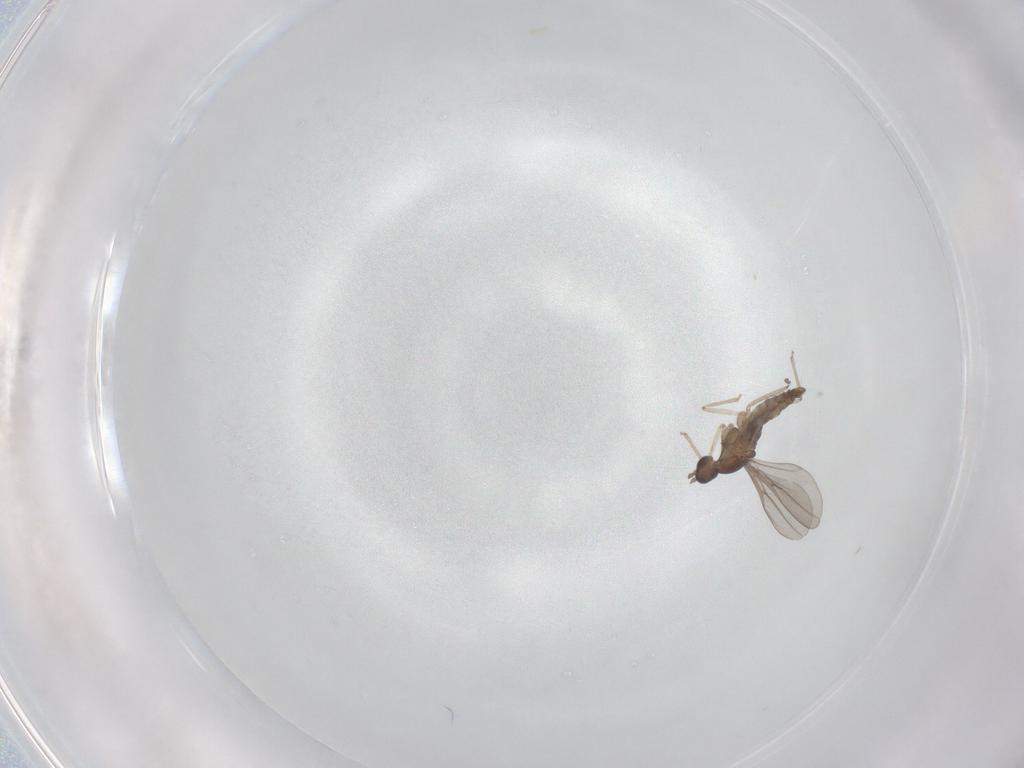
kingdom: Animalia
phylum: Arthropoda
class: Insecta
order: Diptera
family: Cecidomyiidae
